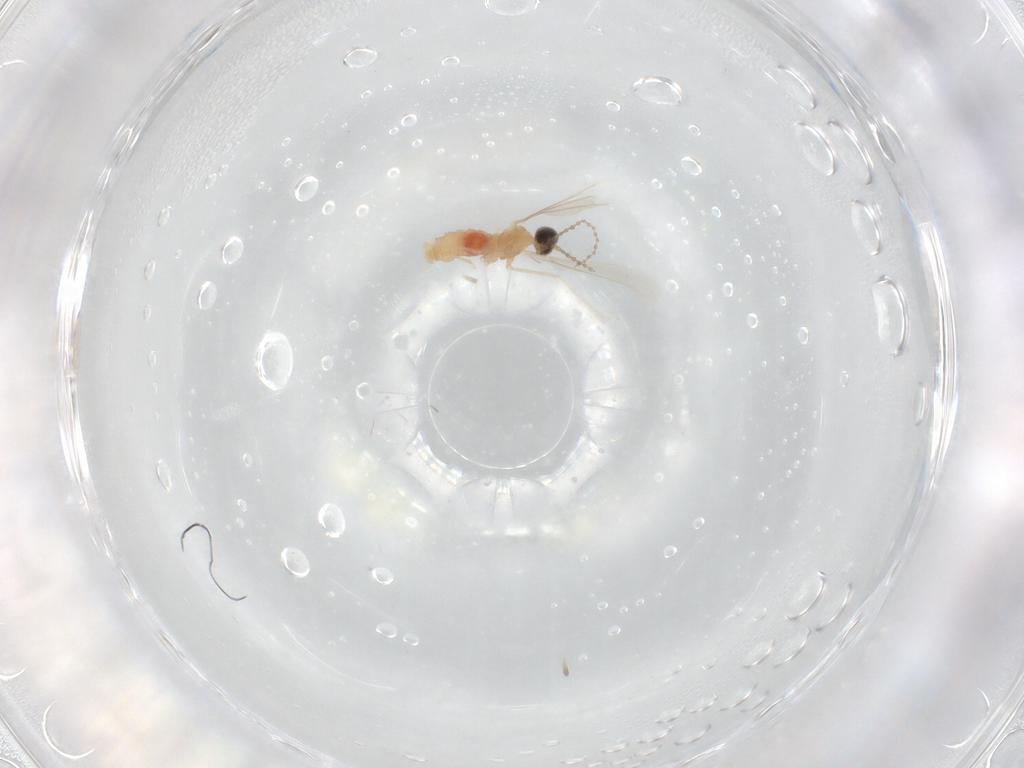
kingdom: Animalia
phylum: Arthropoda
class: Insecta
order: Diptera
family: Cecidomyiidae
